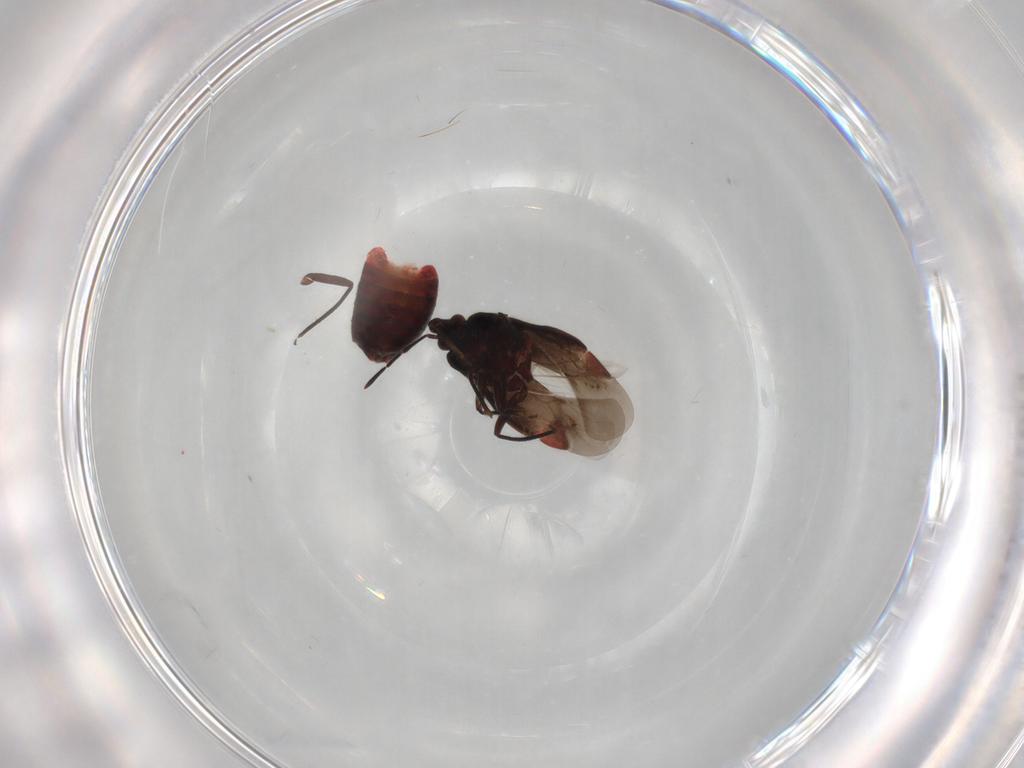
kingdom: Animalia
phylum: Arthropoda
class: Insecta
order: Hemiptera
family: Microphysidae
